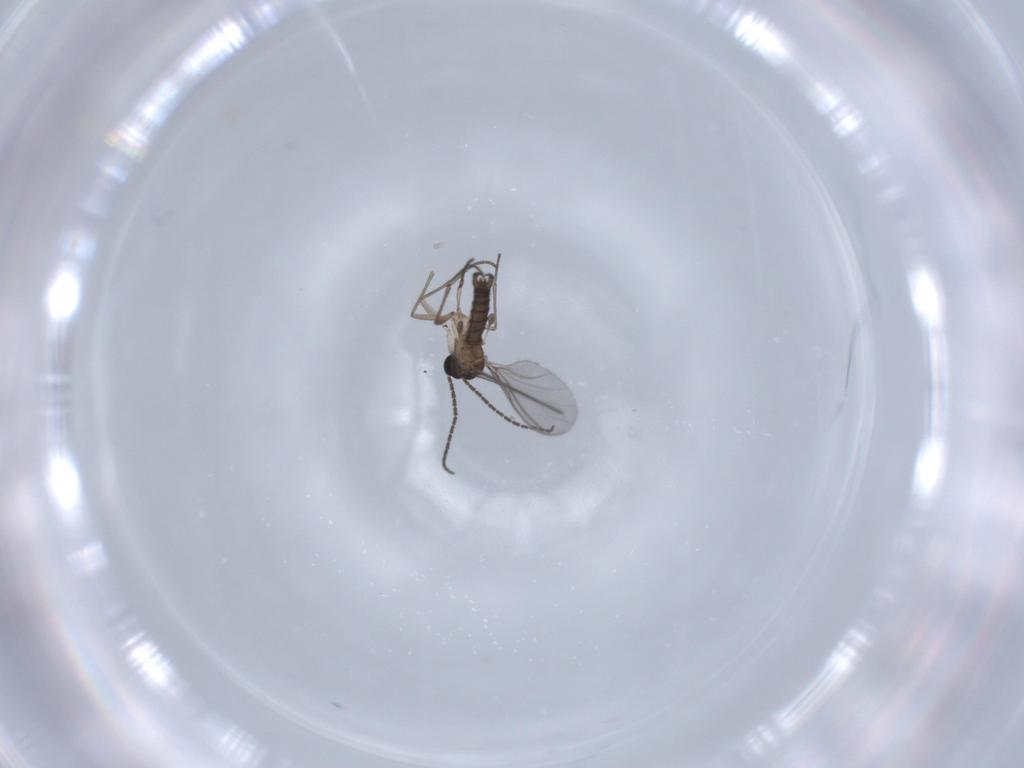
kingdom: Animalia
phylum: Arthropoda
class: Insecta
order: Diptera
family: Sciaridae
